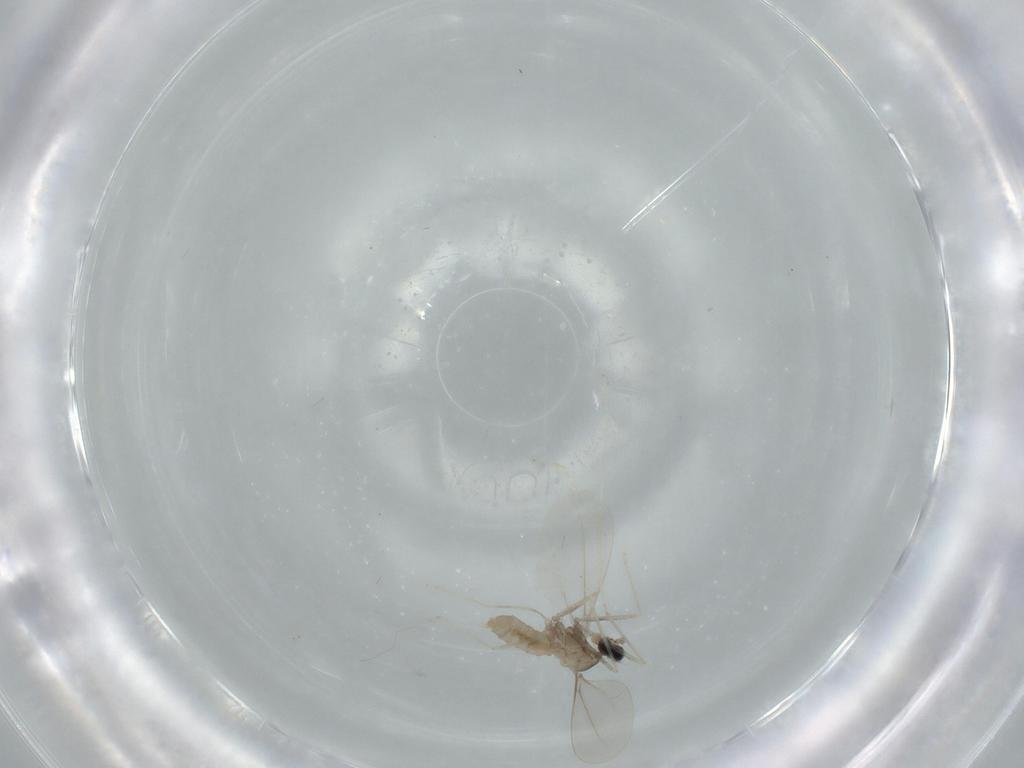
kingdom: Animalia
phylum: Arthropoda
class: Insecta
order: Diptera
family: Cecidomyiidae
